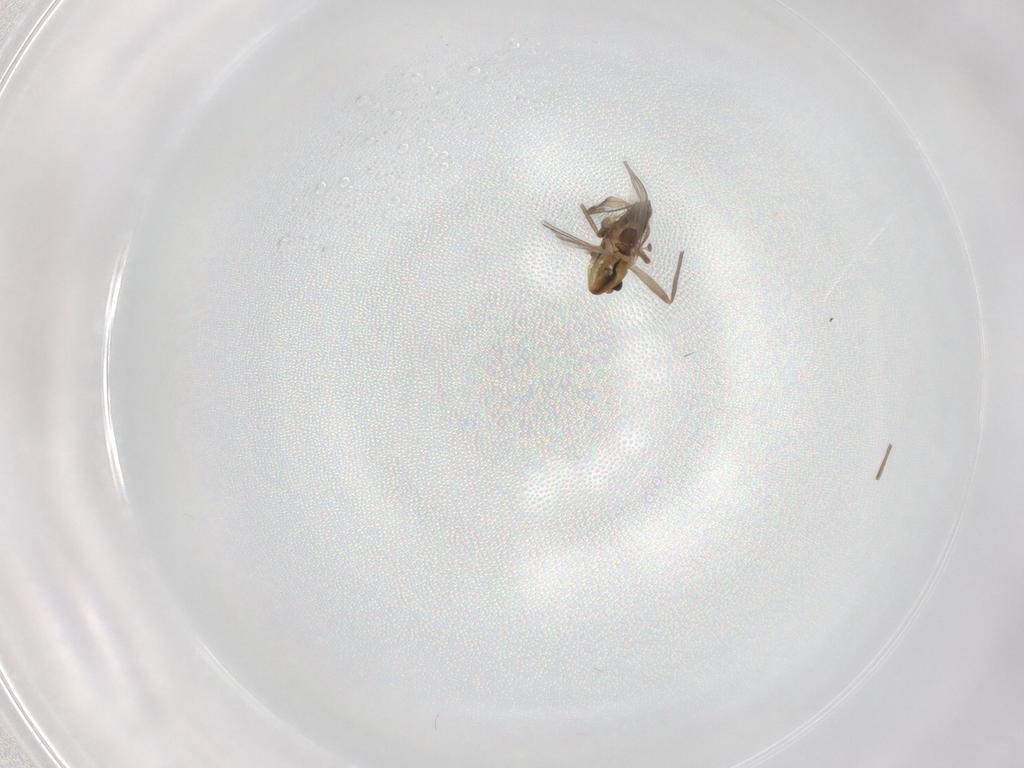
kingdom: Animalia
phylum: Arthropoda
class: Insecta
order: Diptera
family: Chironomidae
